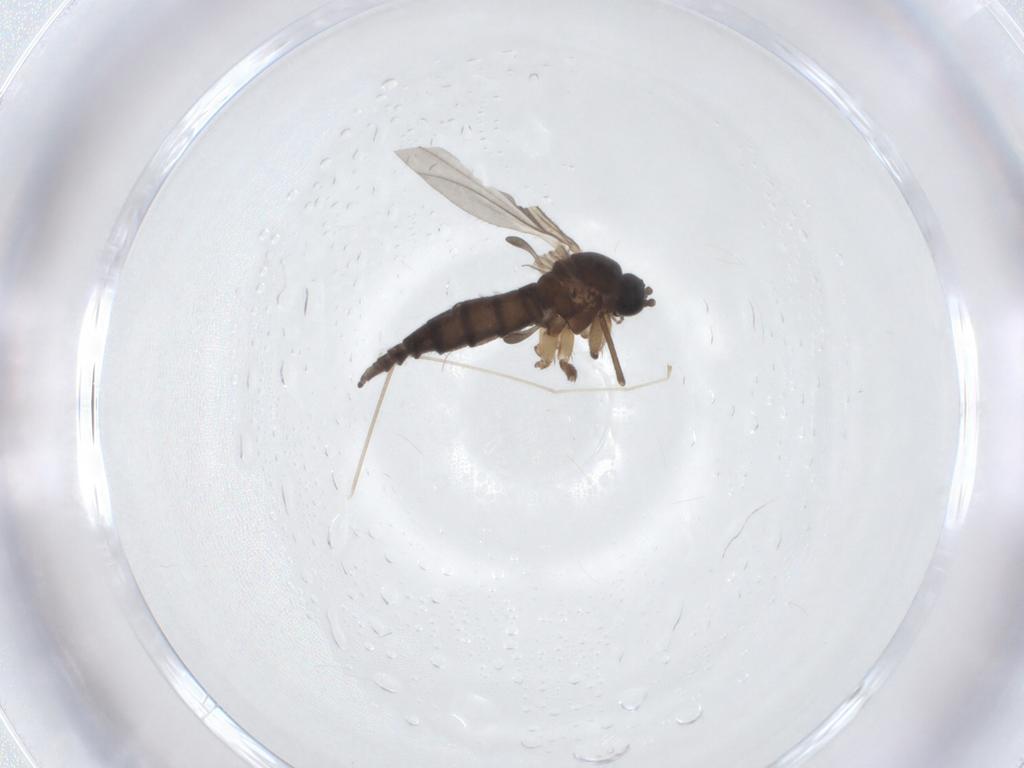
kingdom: Animalia
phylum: Arthropoda
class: Insecta
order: Diptera
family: Sciaridae
